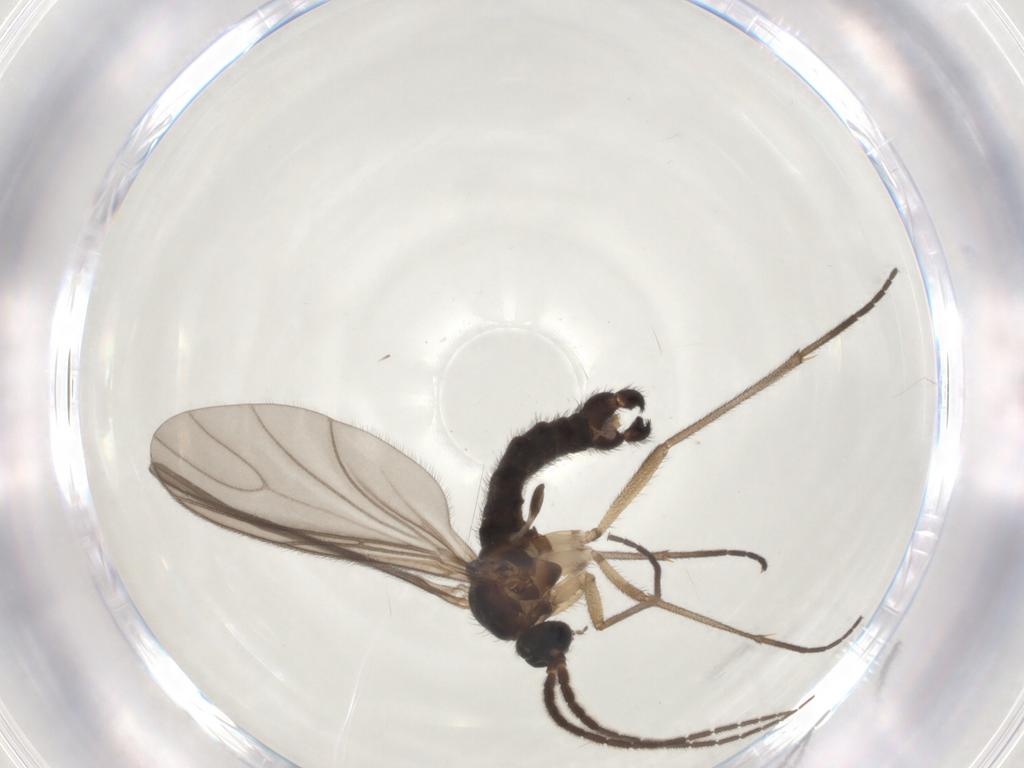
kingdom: Animalia
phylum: Arthropoda
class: Insecta
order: Diptera
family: Sciaridae
